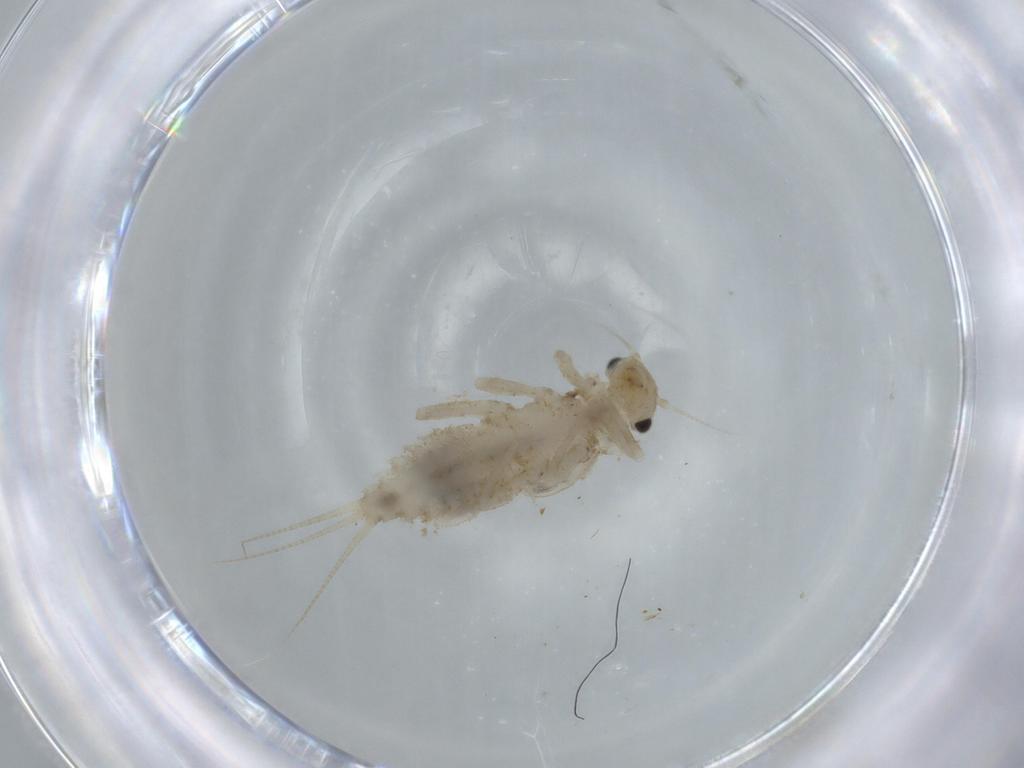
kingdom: Animalia
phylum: Arthropoda
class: Insecta
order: Ephemeroptera
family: Caenidae
